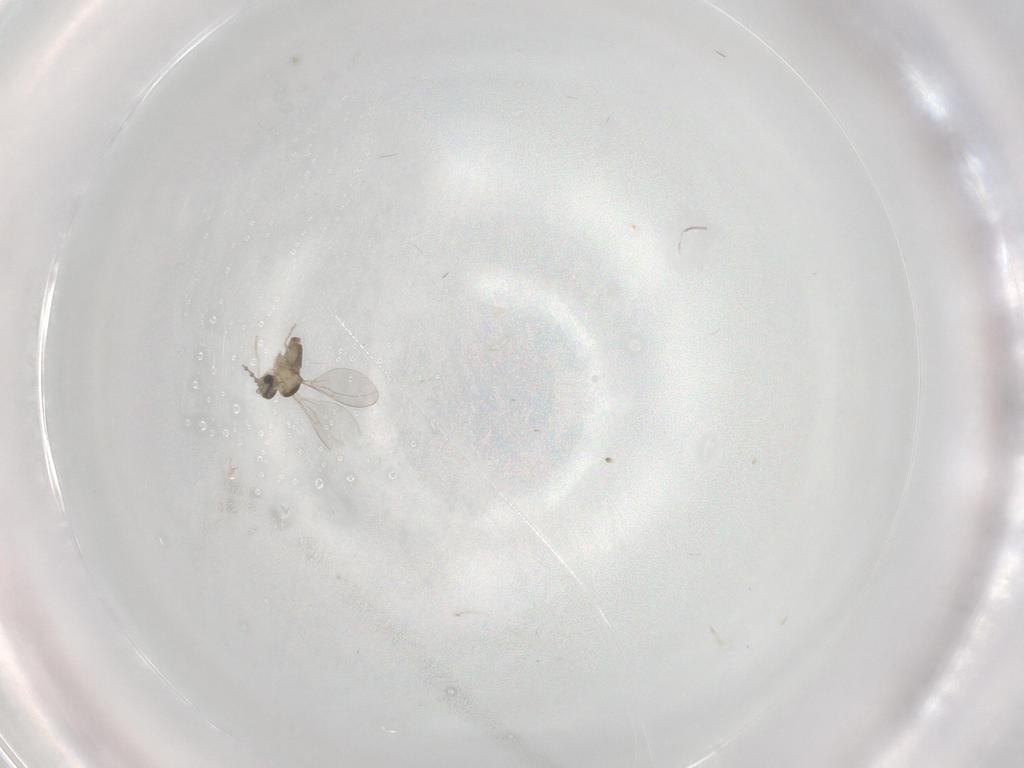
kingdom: Animalia
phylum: Arthropoda
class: Insecta
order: Diptera
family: Cecidomyiidae
